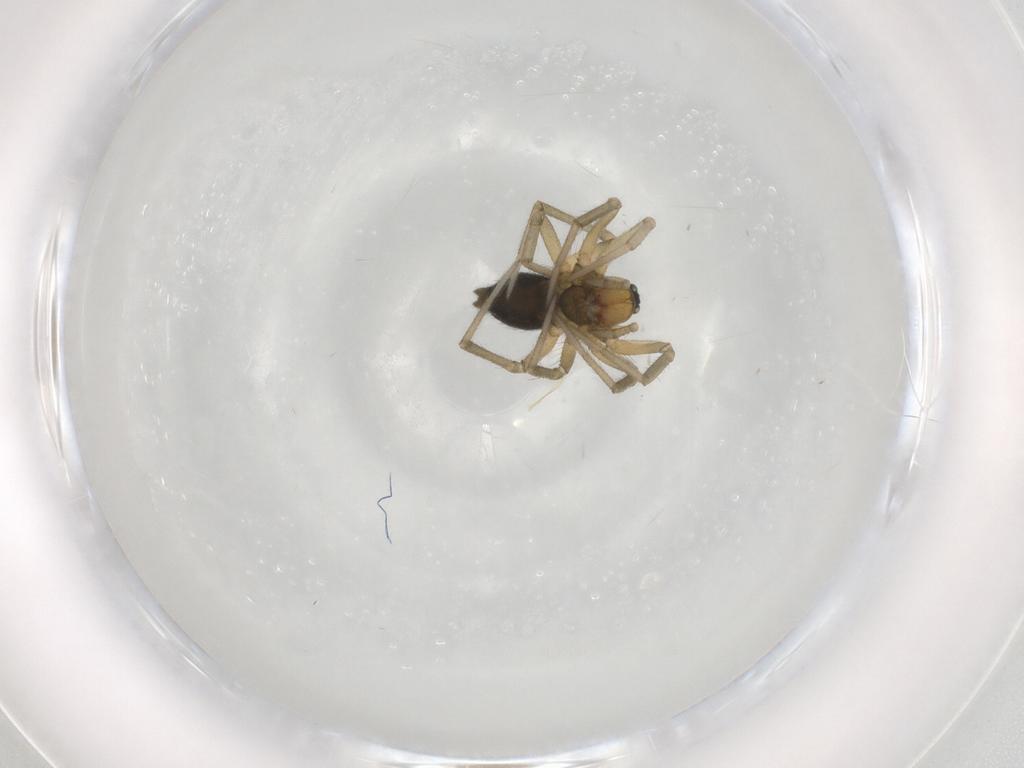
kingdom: Animalia
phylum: Arthropoda
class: Arachnida
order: Araneae
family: Linyphiidae
